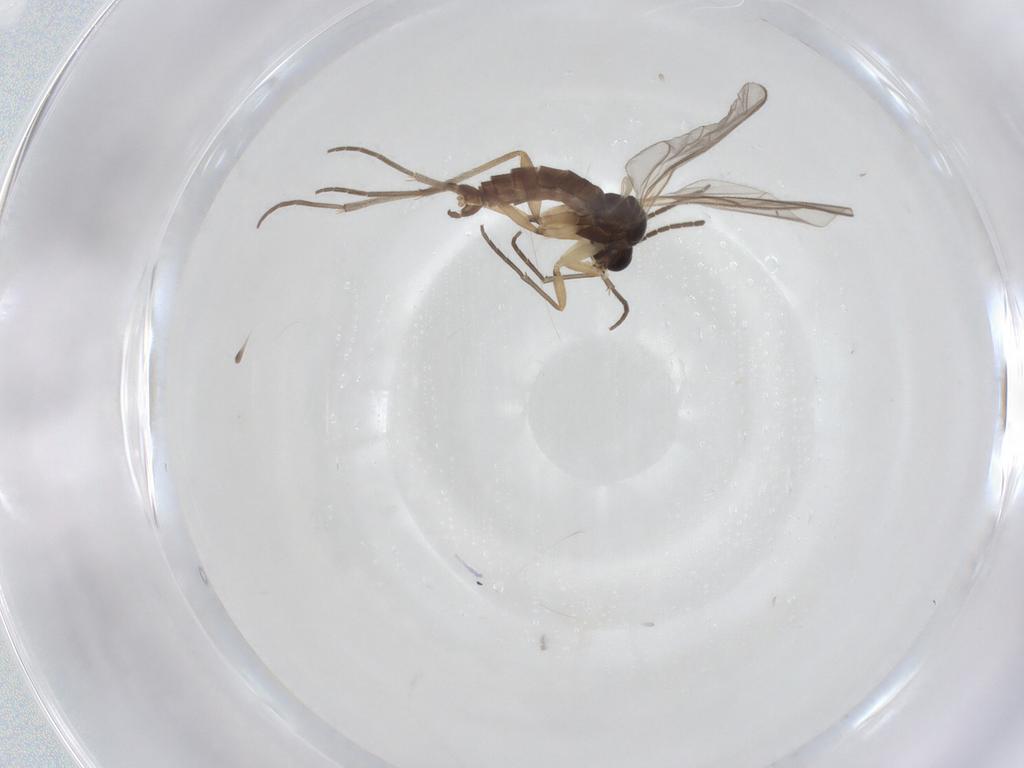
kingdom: Animalia
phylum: Arthropoda
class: Insecta
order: Diptera
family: Sciaridae
